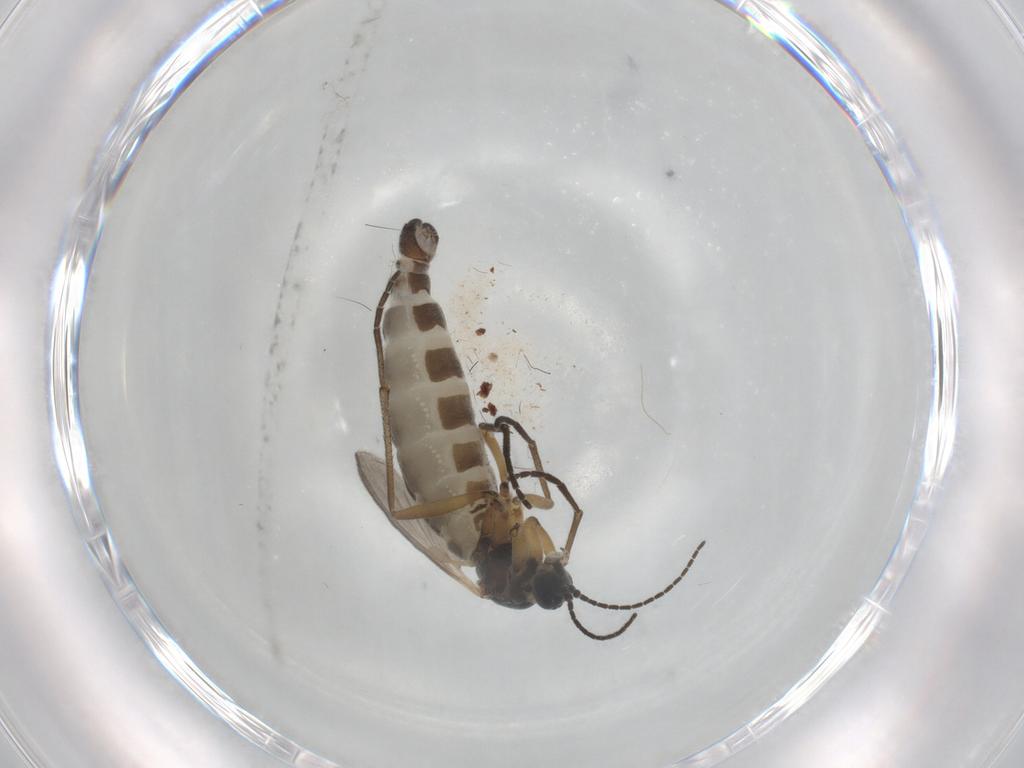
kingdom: Animalia
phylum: Arthropoda
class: Insecta
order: Diptera
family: Sciaridae
